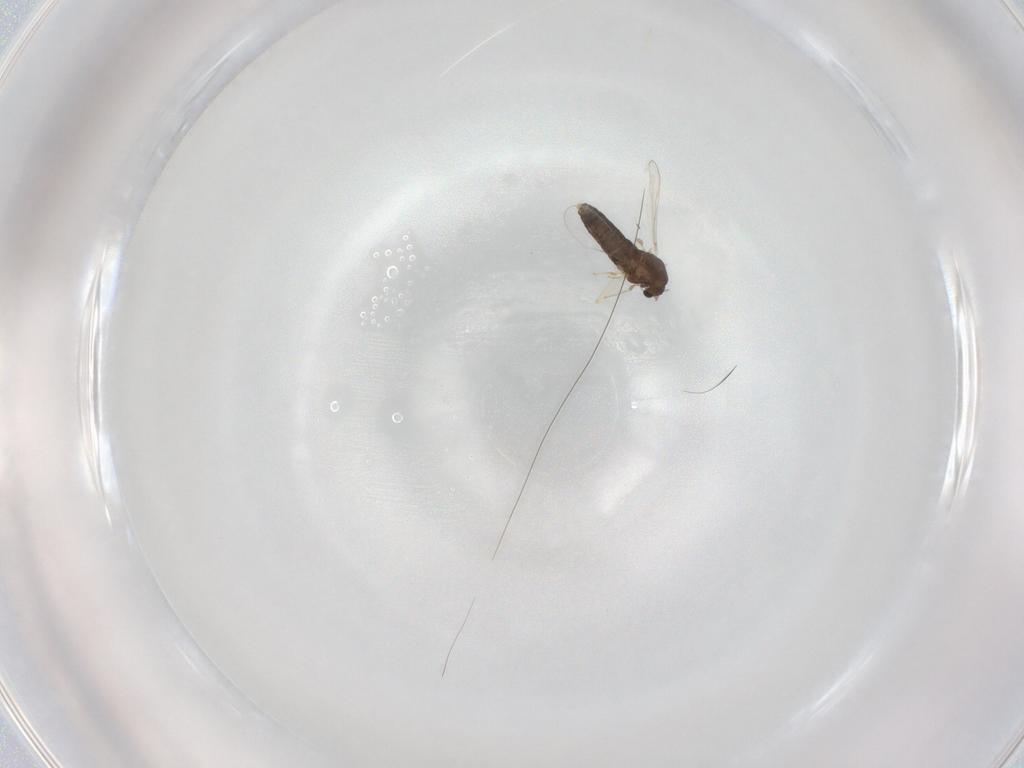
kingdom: Animalia
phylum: Arthropoda
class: Insecta
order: Diptera
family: Chironomidae
